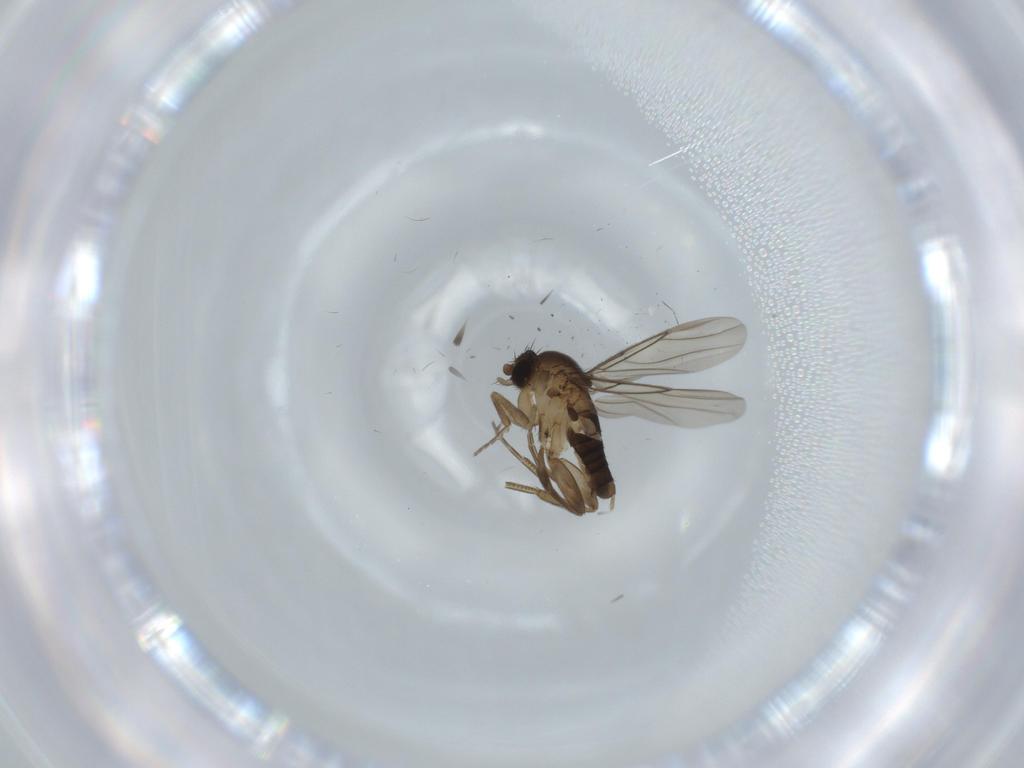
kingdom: Animalia
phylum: Arthropoda
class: Insecta
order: Diptera
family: Phoridae
